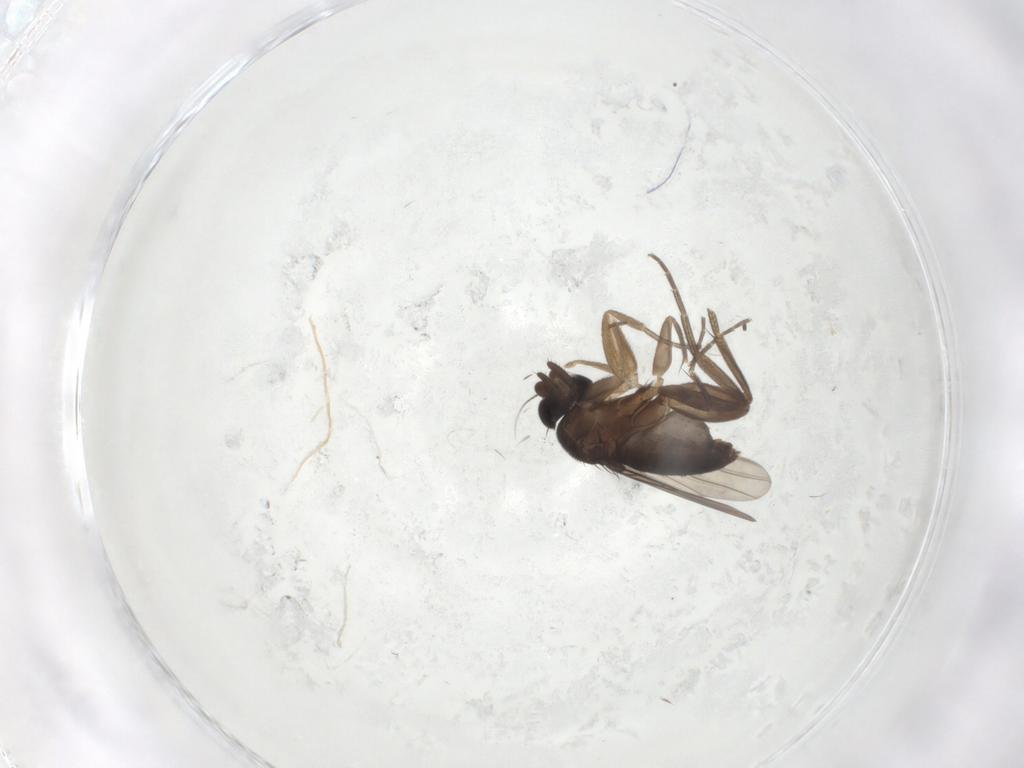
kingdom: Animalia
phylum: Arthropoda
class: Insecta
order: Diptera
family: Phoridae
